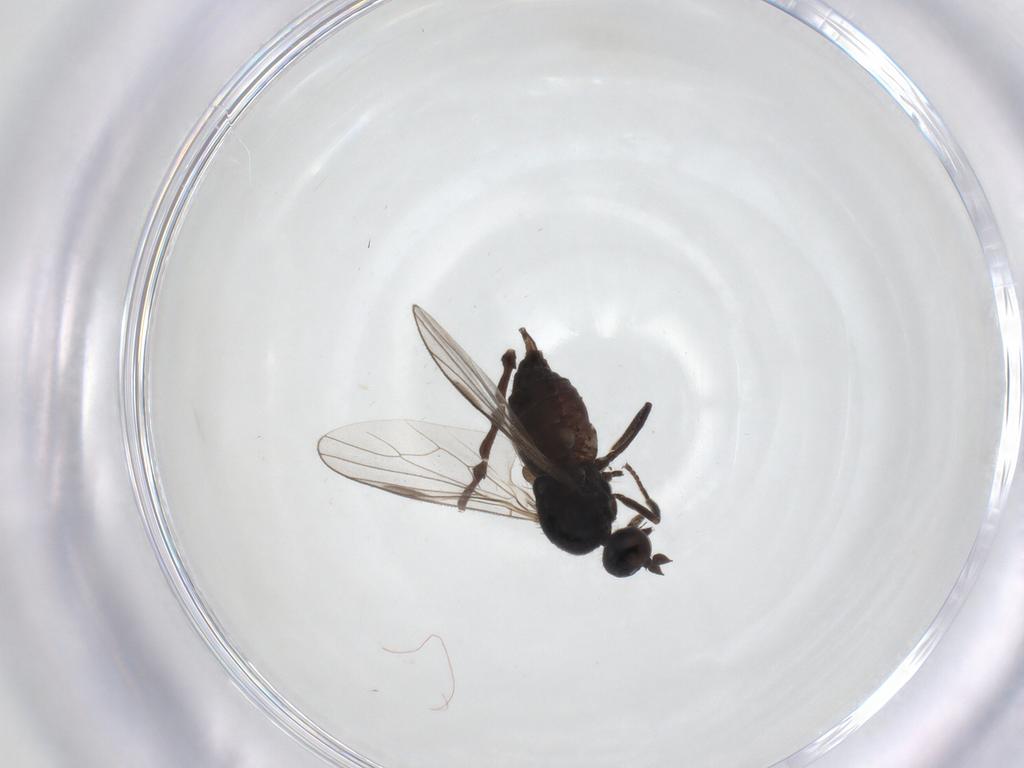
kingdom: Animalia
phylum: Arthropoda
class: Insecta
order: Diptera
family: Hybotidae
